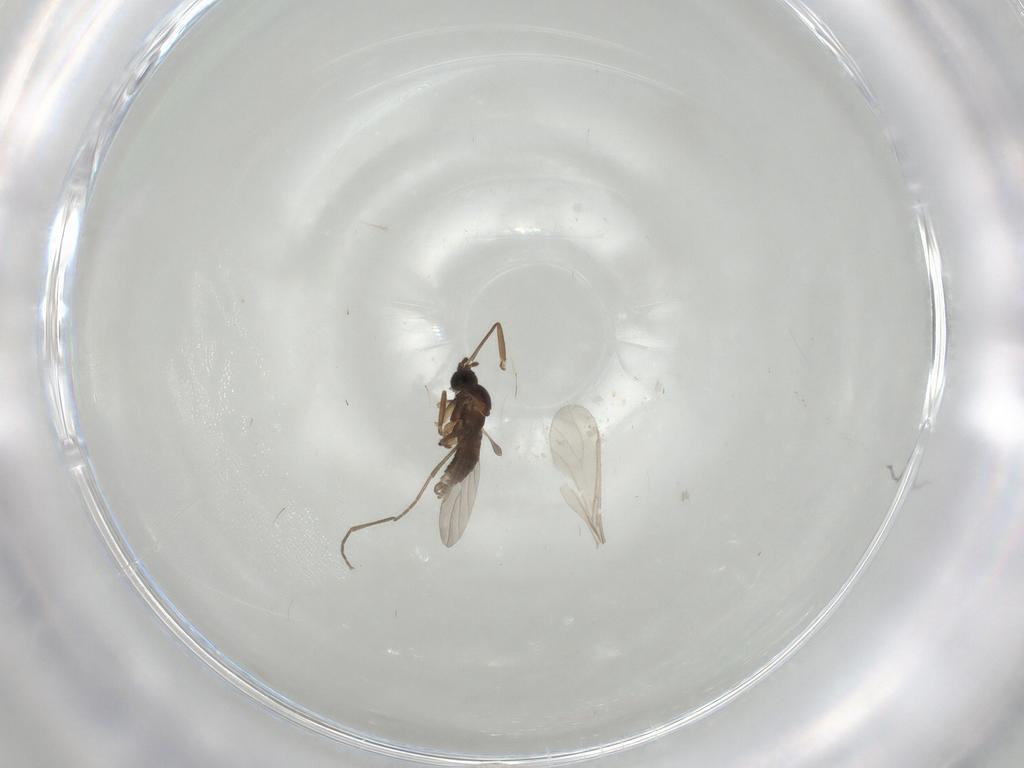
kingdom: Animalia
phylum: Arthropoda
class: Insecta
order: Diptera
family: Sciaridae
